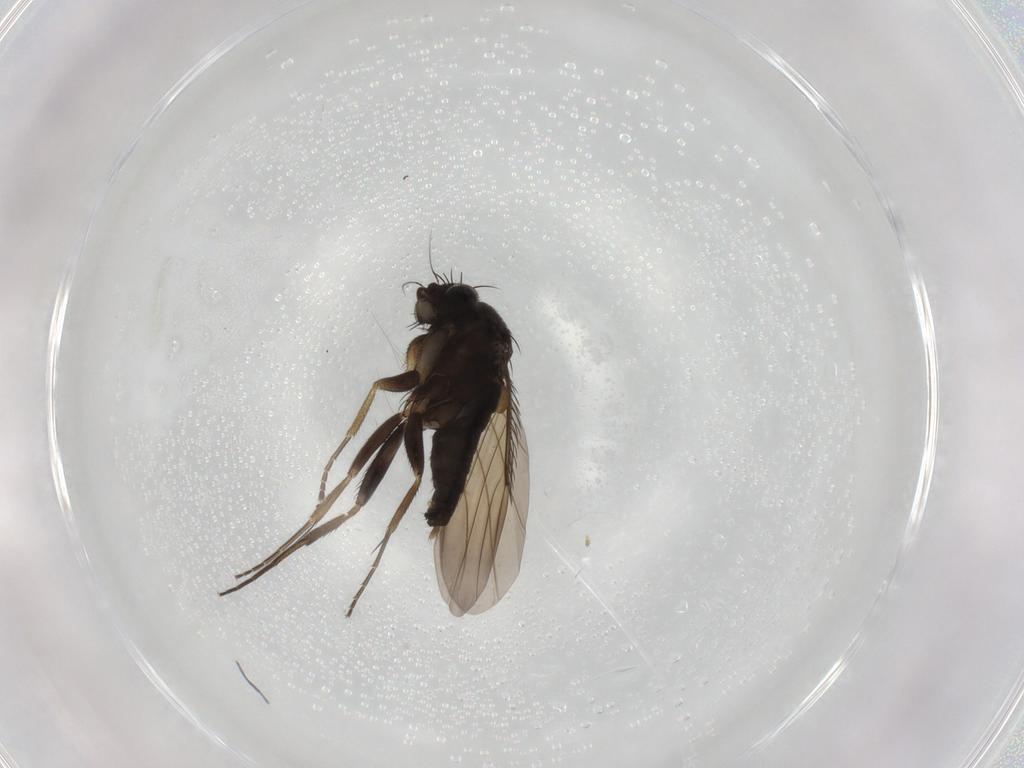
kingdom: Animalia
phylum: Arthropoda
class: Insecta
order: Diptera
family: Phoridae
